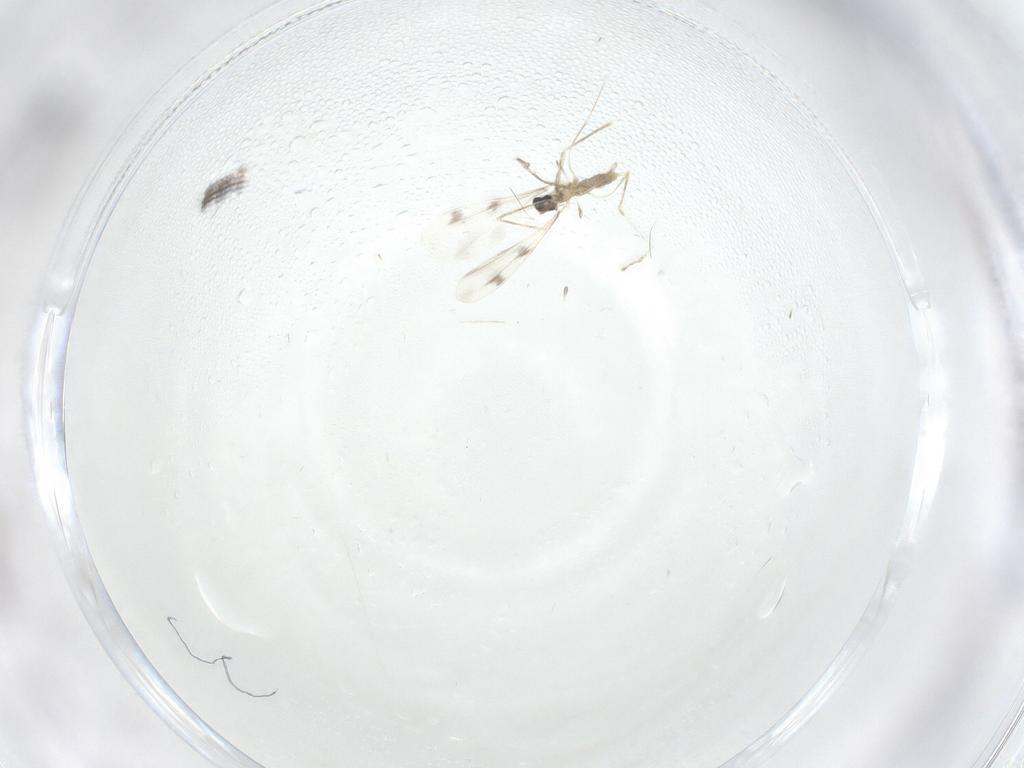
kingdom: Animalia
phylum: Arthropoda
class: Insecta
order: Diptera
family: Cecidomyiidae
